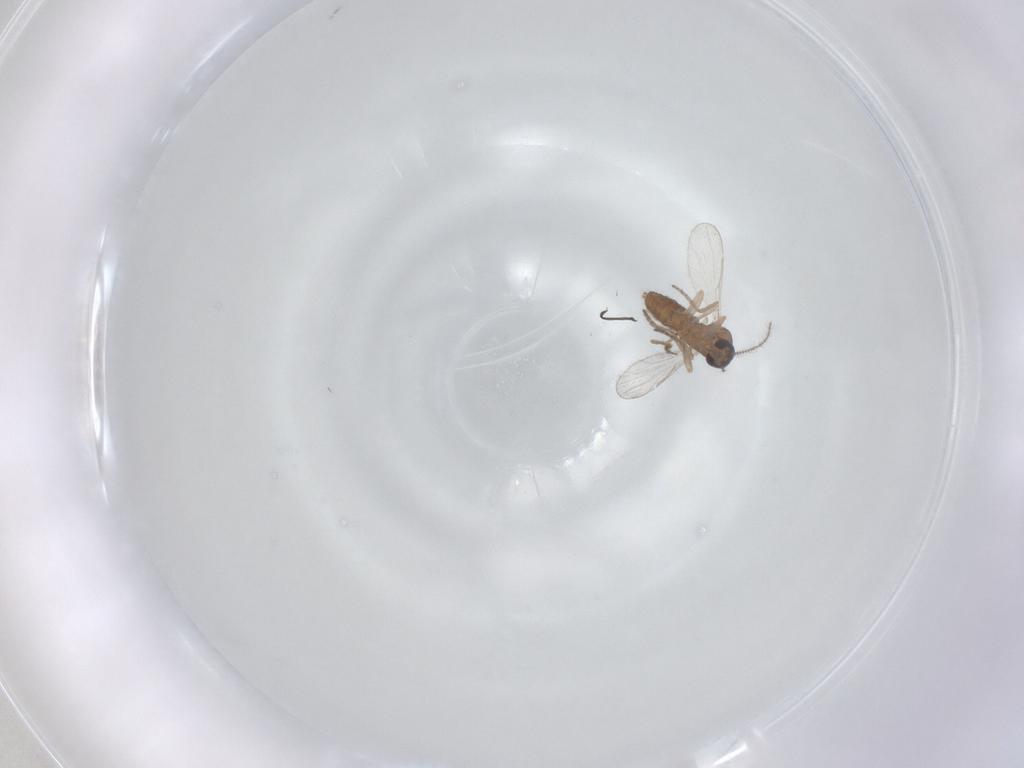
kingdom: Animalia
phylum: Arthropoda
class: Insecta
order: Diptera
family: Ceratopogonidae
